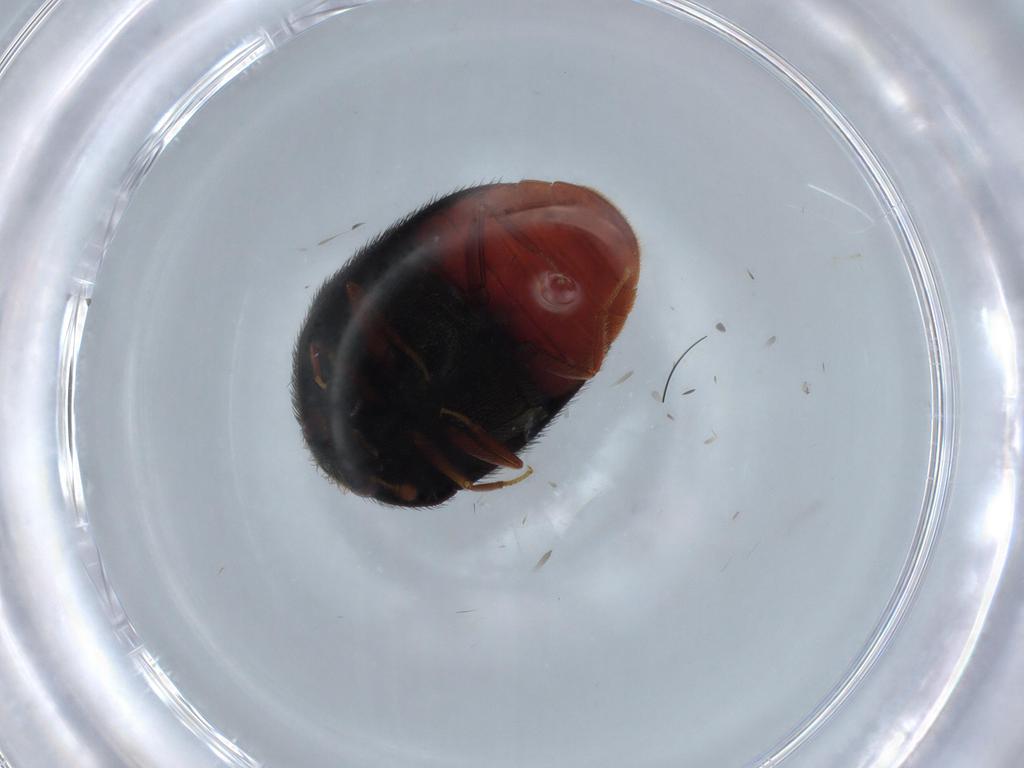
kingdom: Animalia
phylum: Arthropoda
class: Insecta
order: Coleoptera
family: Dermestidae
